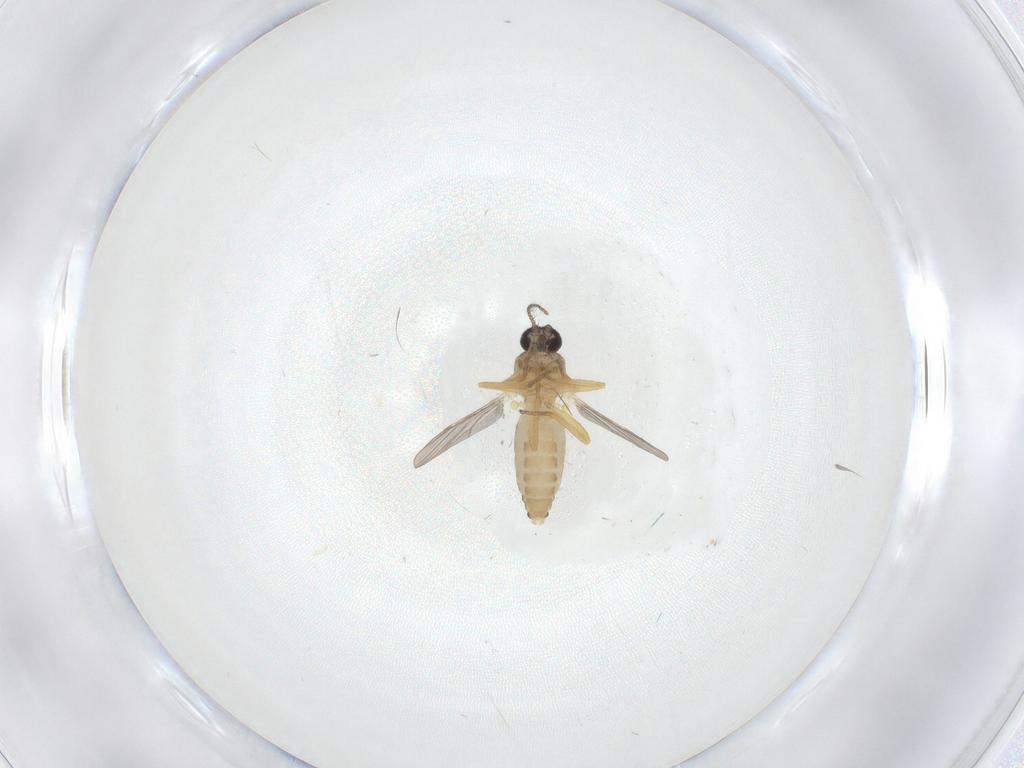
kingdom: Animalia
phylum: Arthropoda
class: Insecta
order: Diptera
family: Ceratopogonidae
